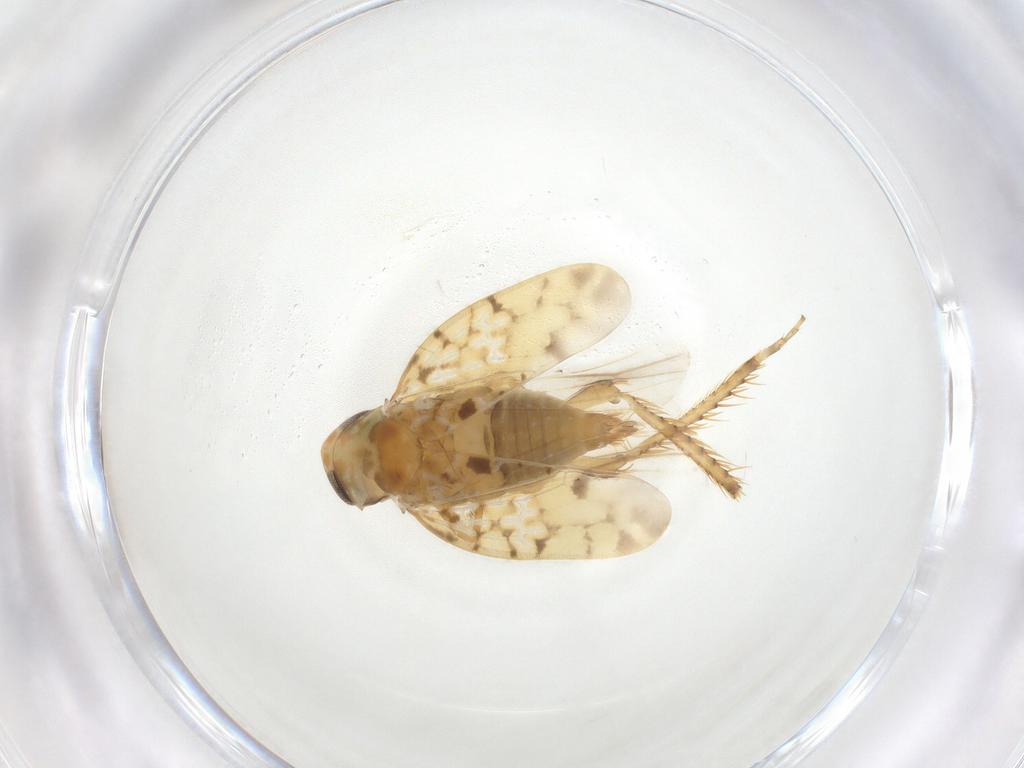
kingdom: Animalia
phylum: Arthropoda
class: Insecta
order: Hemiptera
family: Cicadellidae
